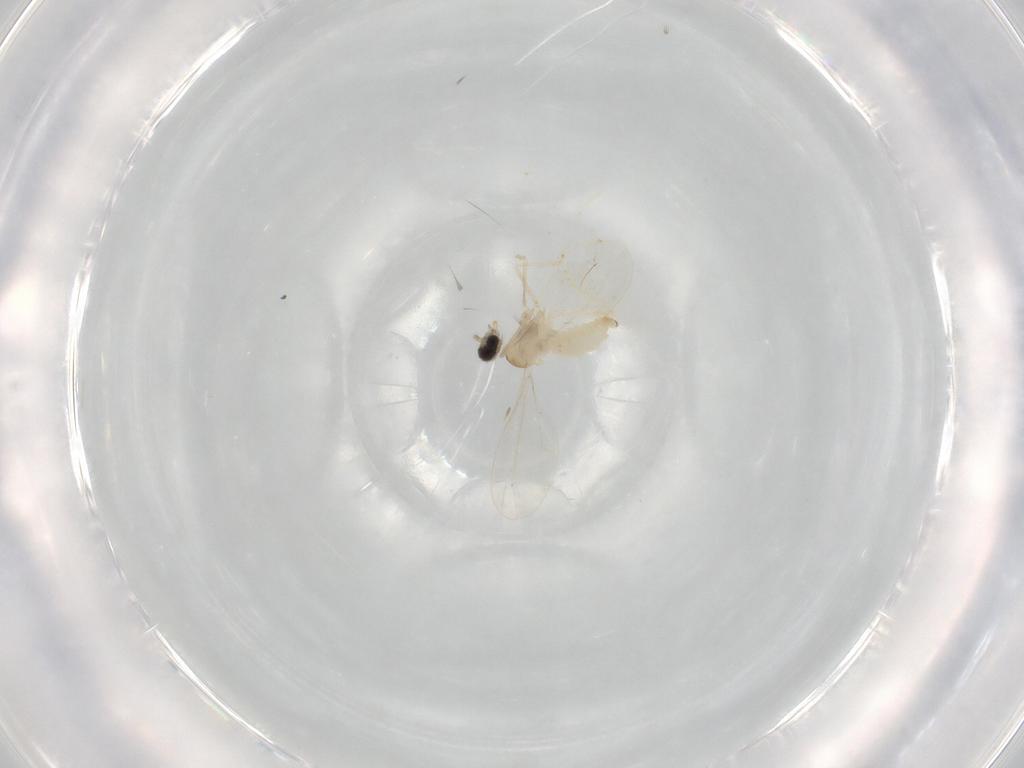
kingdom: Animalia
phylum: Arthropoda
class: Insecta
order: Diptera
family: Cecidomyiidae
